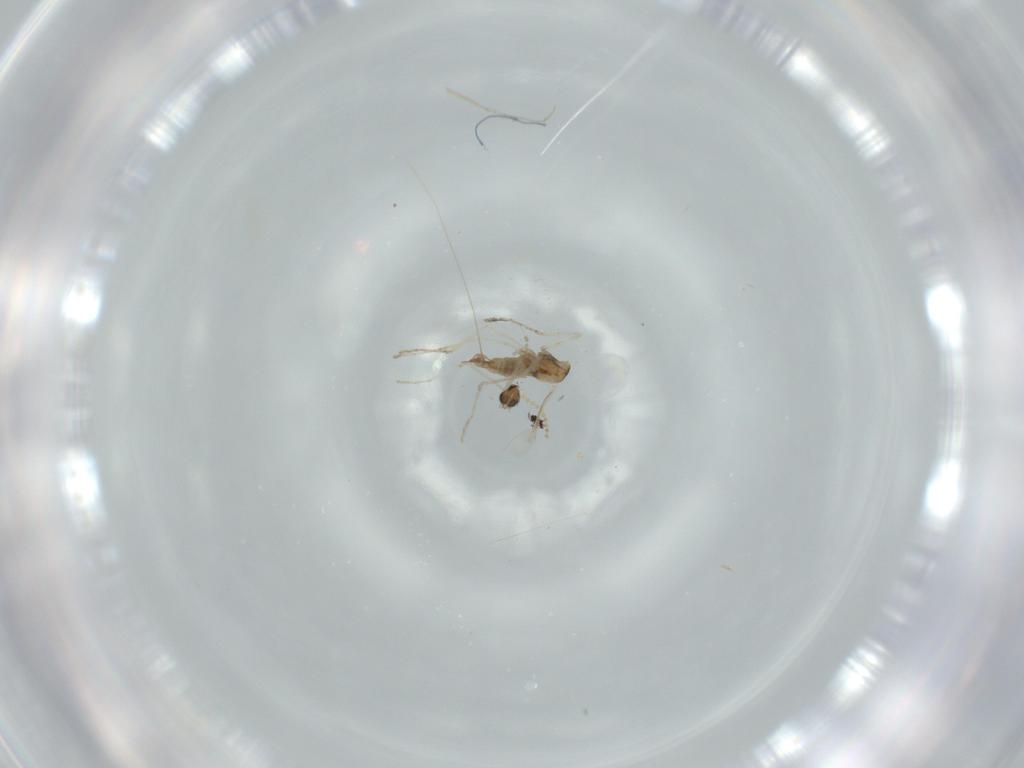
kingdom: Animalia
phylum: Arthropoda
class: Insecta
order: Diptera
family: Cecidomyiidae
